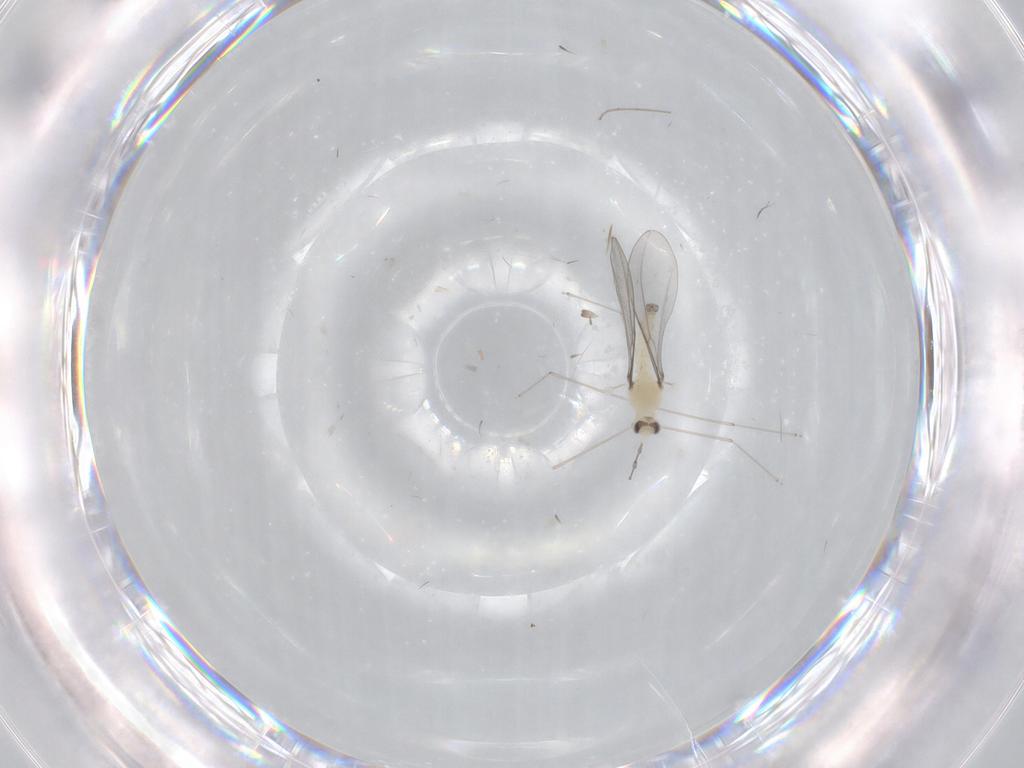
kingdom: Animalia
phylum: Arthropoda
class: Insecta
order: Diptera
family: Cecidomyiidae
